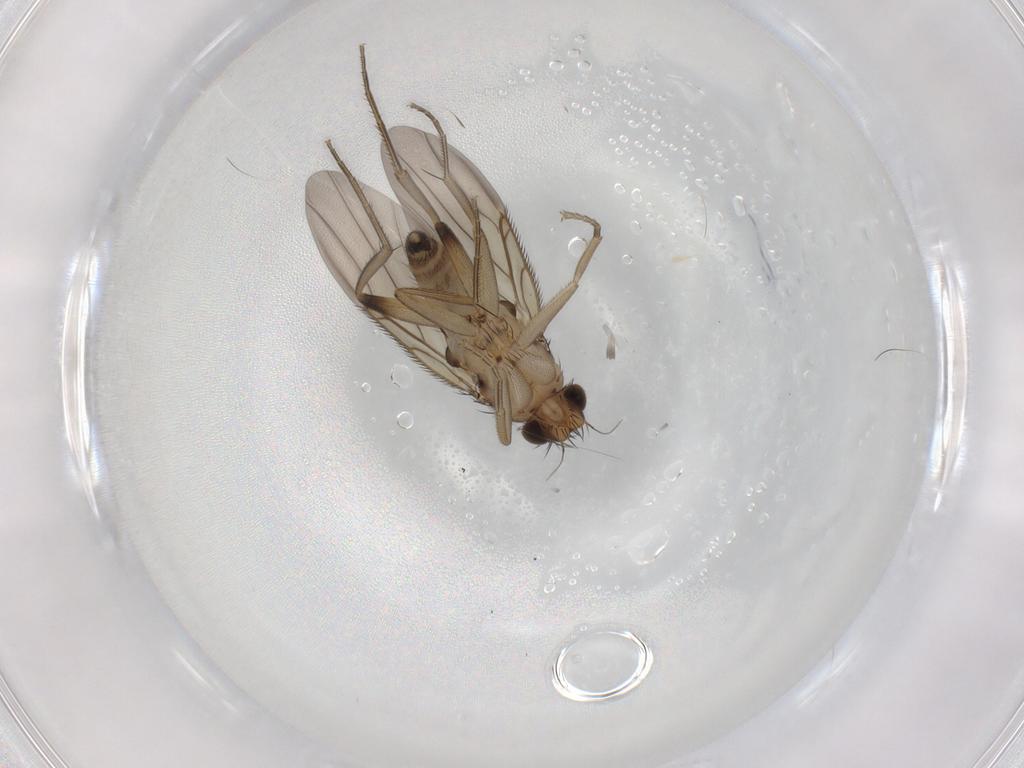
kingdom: Animalia
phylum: Arthropoda
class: Insecta
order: Diptera
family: Phoridae
